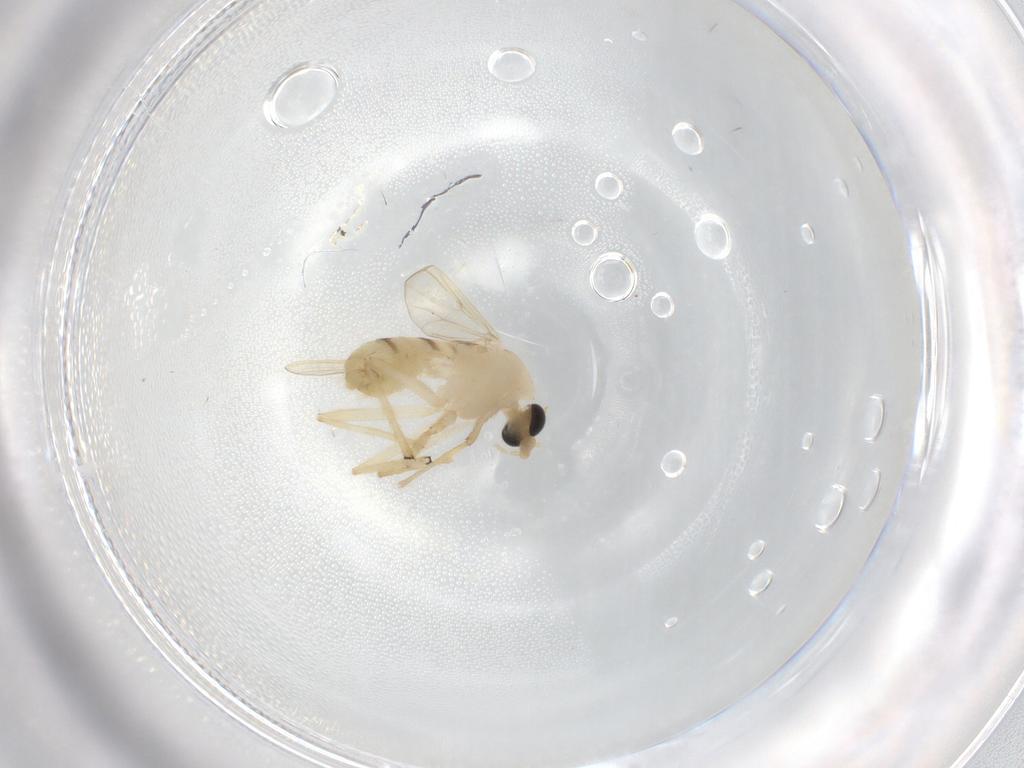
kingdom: Animalia
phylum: Arthropoda
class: Insecta
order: Diptera
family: Chironomidae
